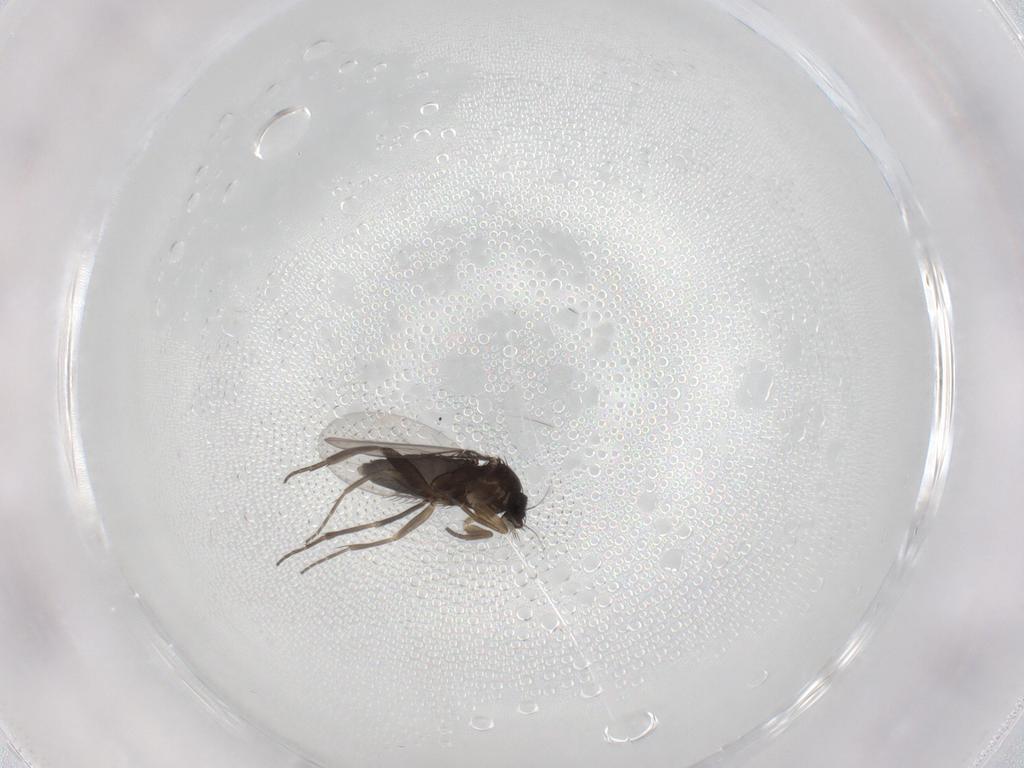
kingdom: Animalia
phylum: Arthropoda
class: Insecta
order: Diptera
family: Phoridae
